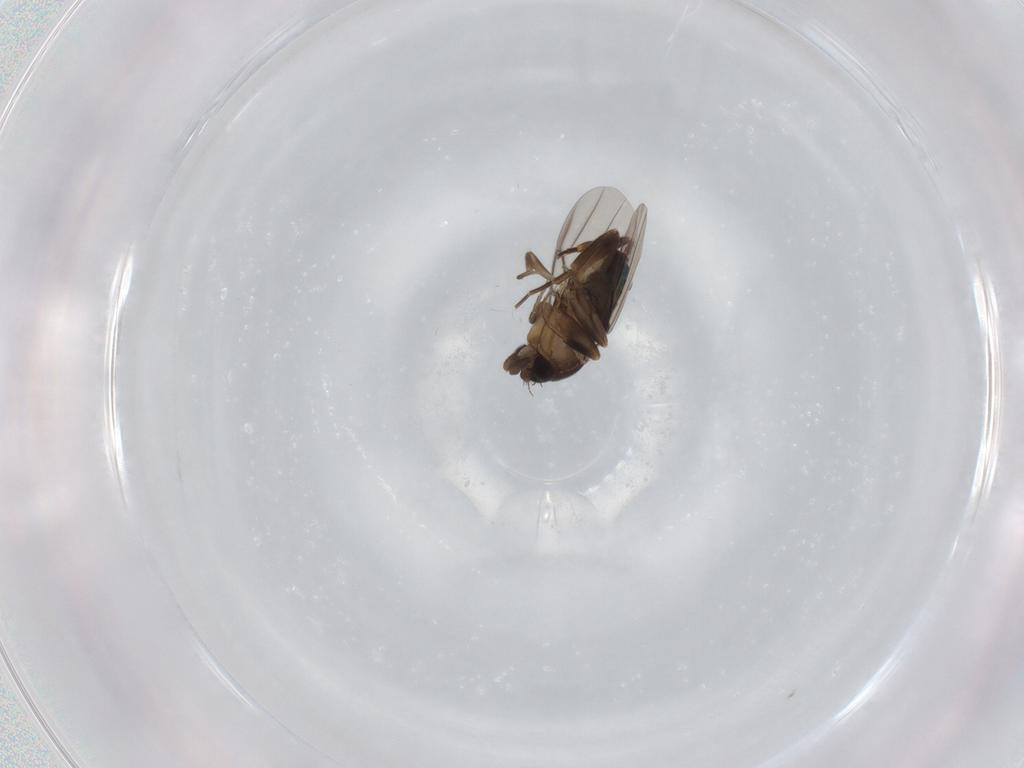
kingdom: Animalia
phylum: Arthropoda
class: Insecta
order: Diptera
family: Phoridae
